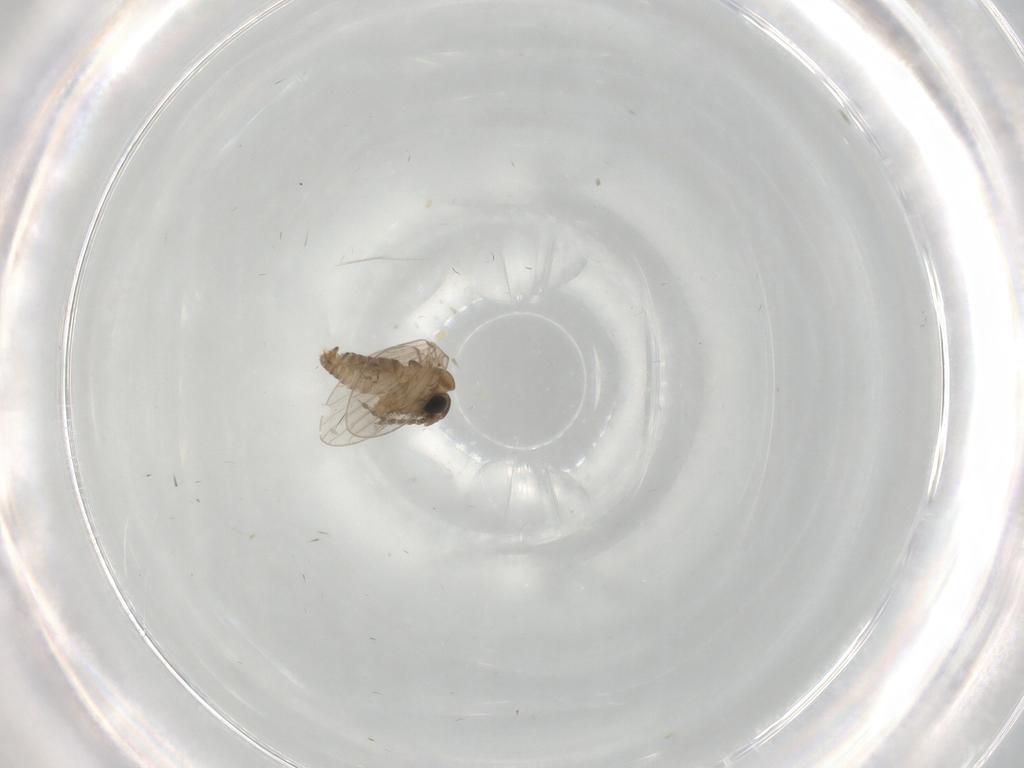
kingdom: Animalia
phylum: Arthropoda
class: Insecta
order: Diptera
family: Psychodidae
